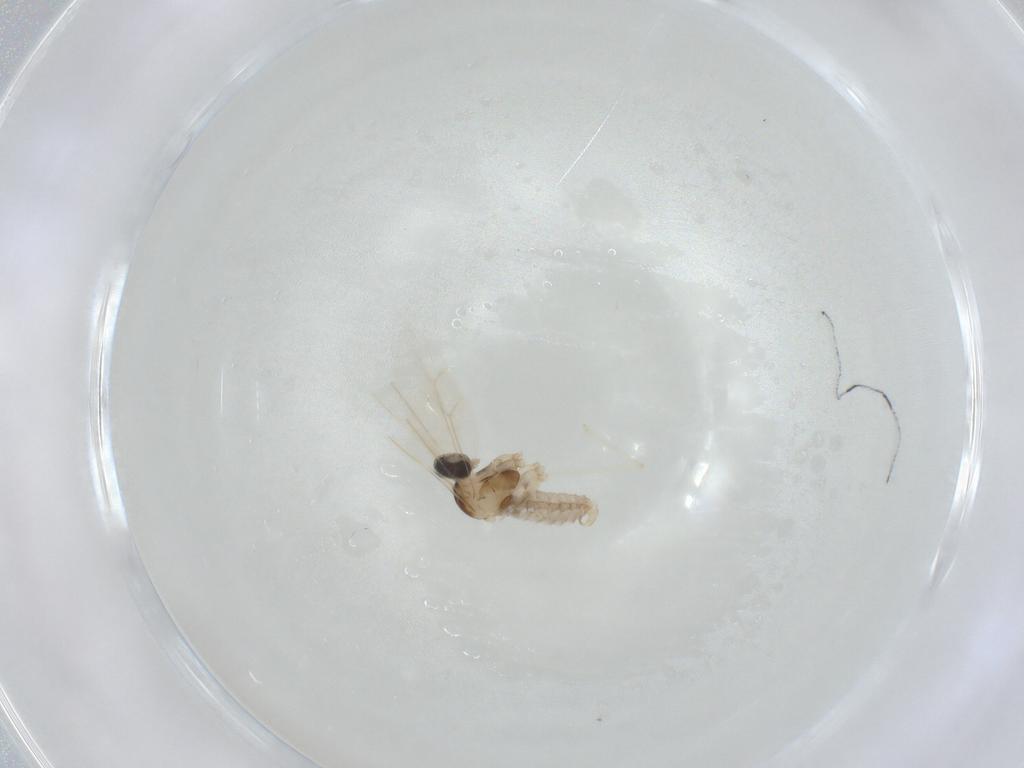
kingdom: Animalia
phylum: Arthropoda
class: Insecta
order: Diptera
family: Cecidomyiidae
